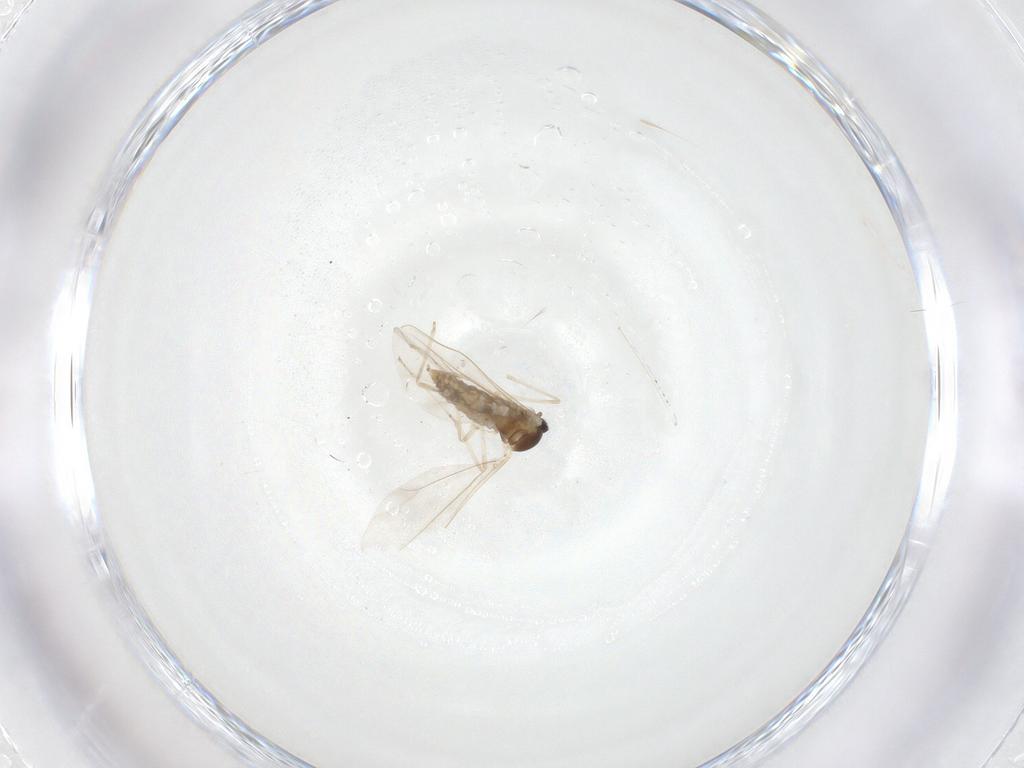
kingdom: Animalia
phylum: Arthropoda
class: Insecta
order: Diptera
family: Cecidomyiidae
